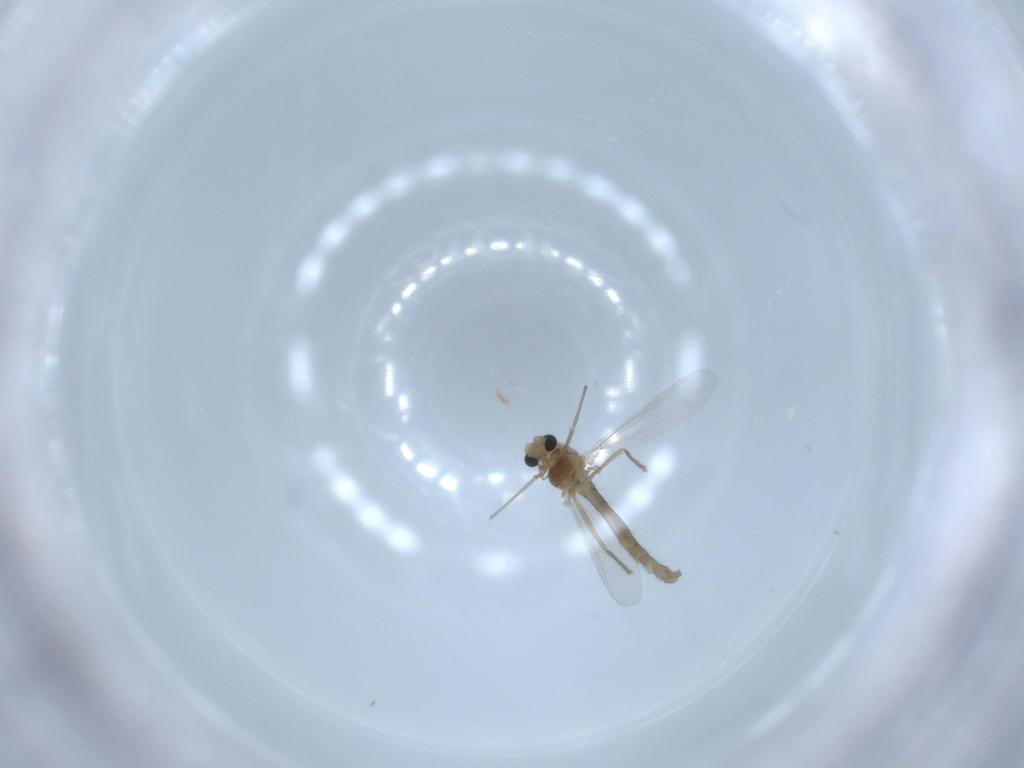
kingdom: Animalia
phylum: Arthropoda
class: Insecta
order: Diptera
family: Chironomidae
